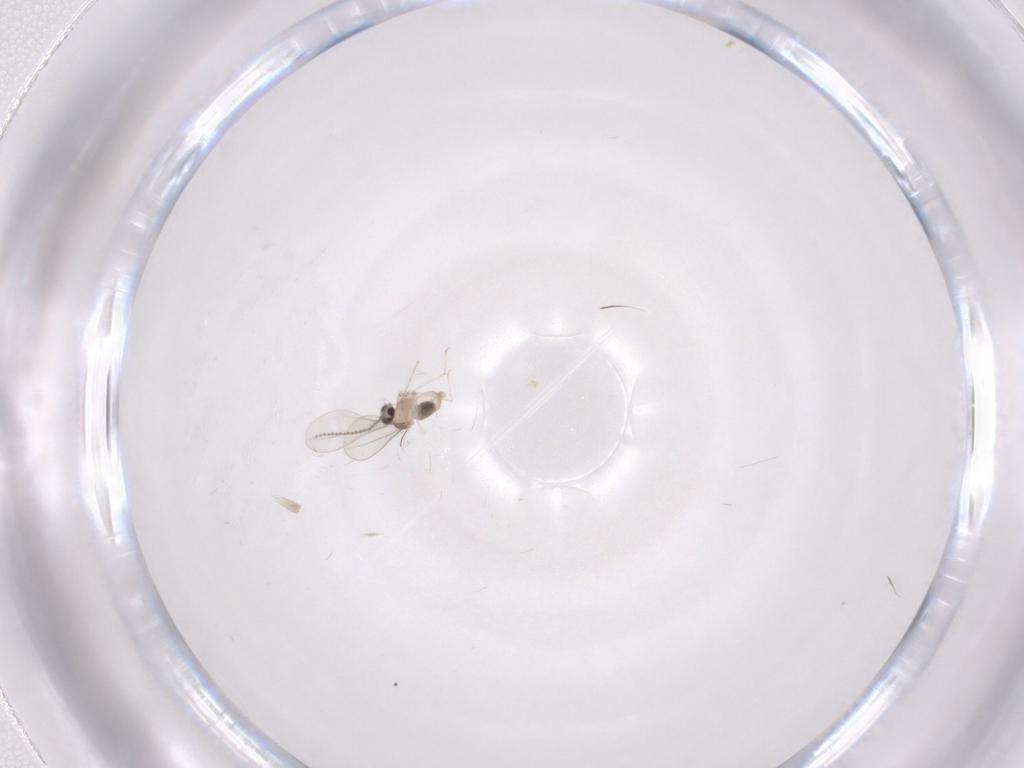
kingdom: Animalia
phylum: Arthropoda
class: Insecta
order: Diptera
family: Cecidomyiidae
